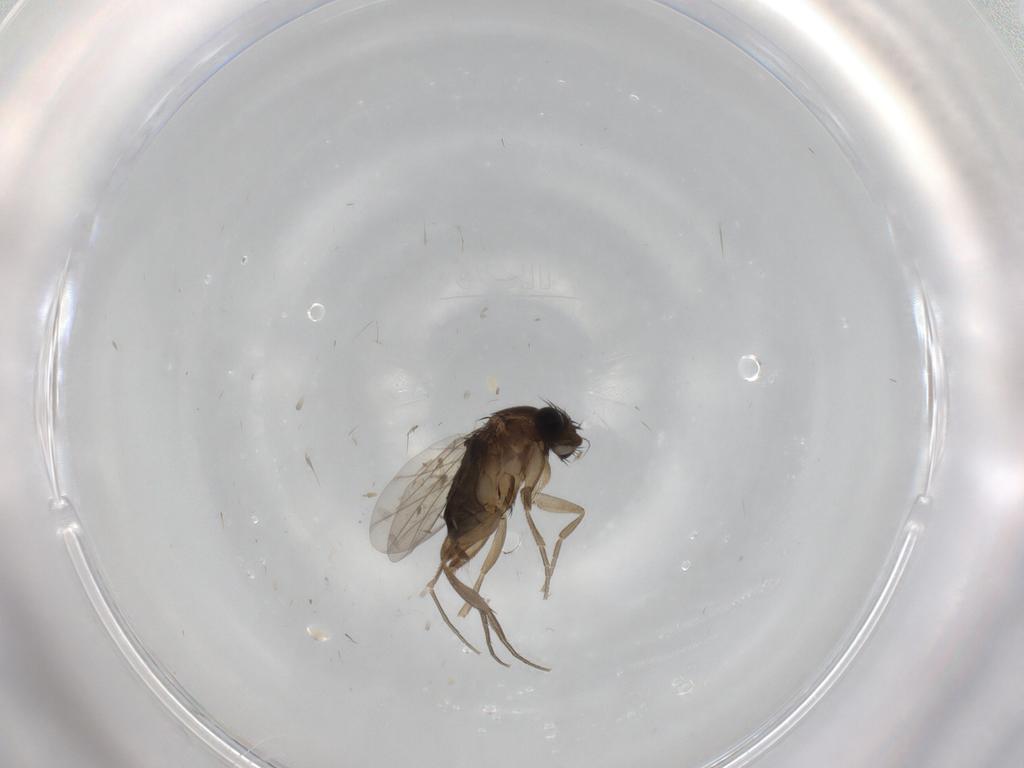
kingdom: Animalia
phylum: Arthropoda
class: Insecta
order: Diptera
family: Phoridae
